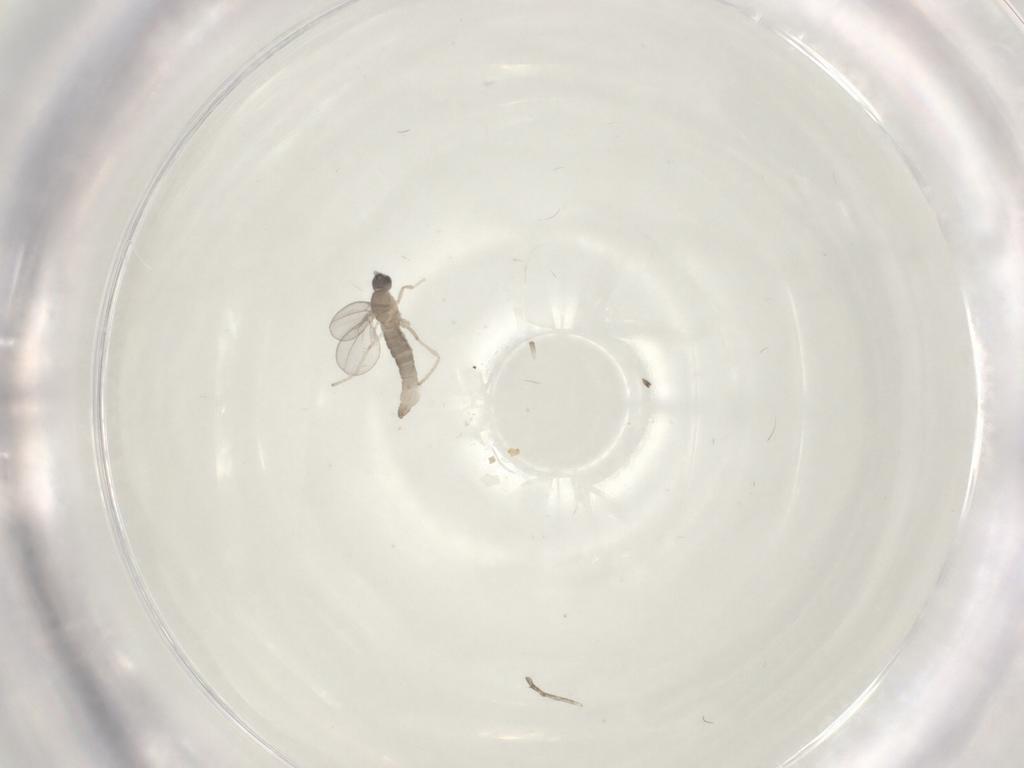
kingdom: Animalia
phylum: Arthropoda
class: Insecta
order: Diptera
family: Cecidomyiidae
